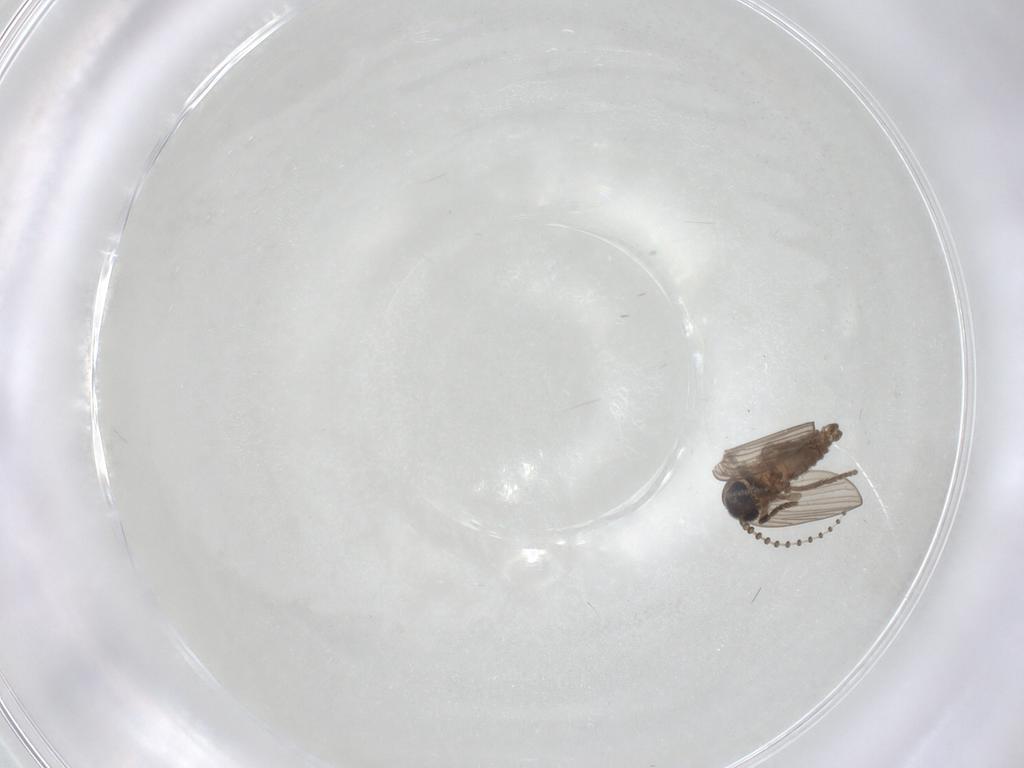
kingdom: Animalia
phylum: Arthropoda
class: Insecta
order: Diptera
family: Psychodidae
